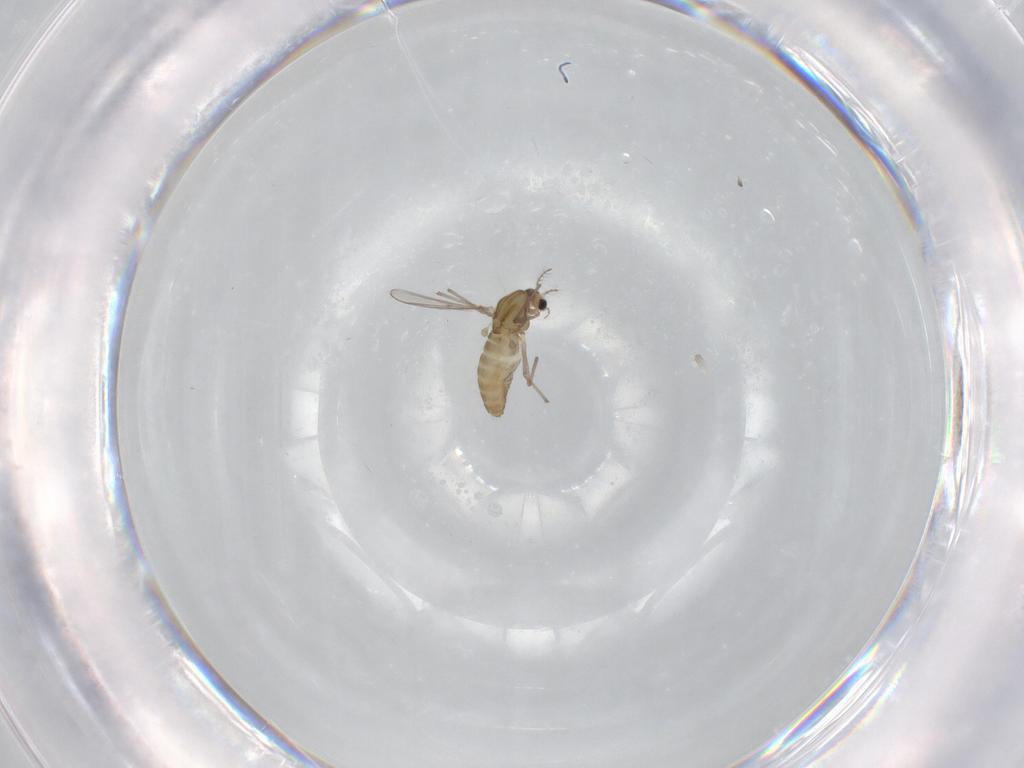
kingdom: Animalia
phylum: Arthropoda
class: Insecta
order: Diptera
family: Chironomidae
